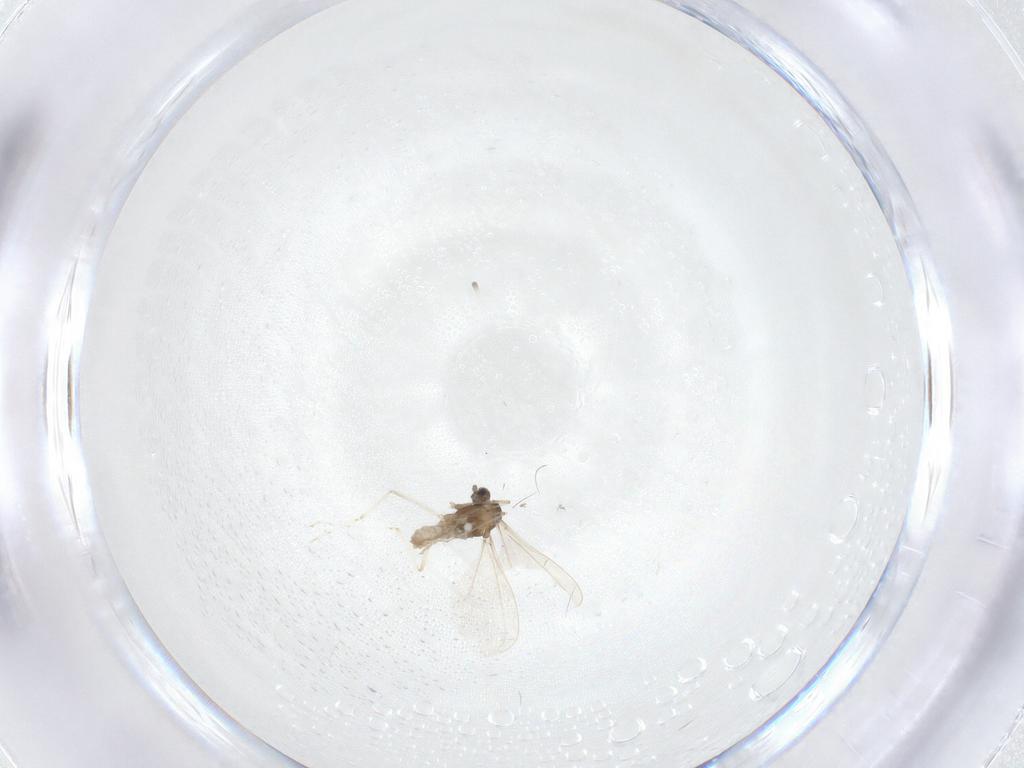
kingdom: Animalia
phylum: Arthropoda
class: Insecta
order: Diptera
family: Cecidomyiidae
